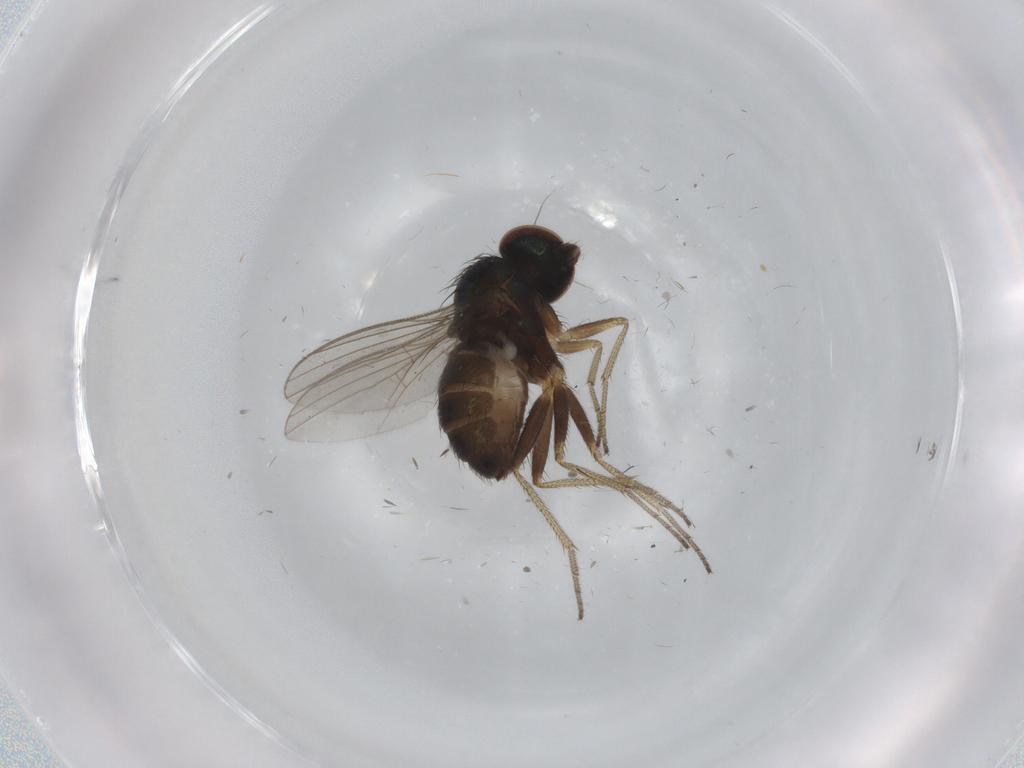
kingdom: Animalia
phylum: Arthropoda
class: Insecta
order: Diptera
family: Dolichopodidae
